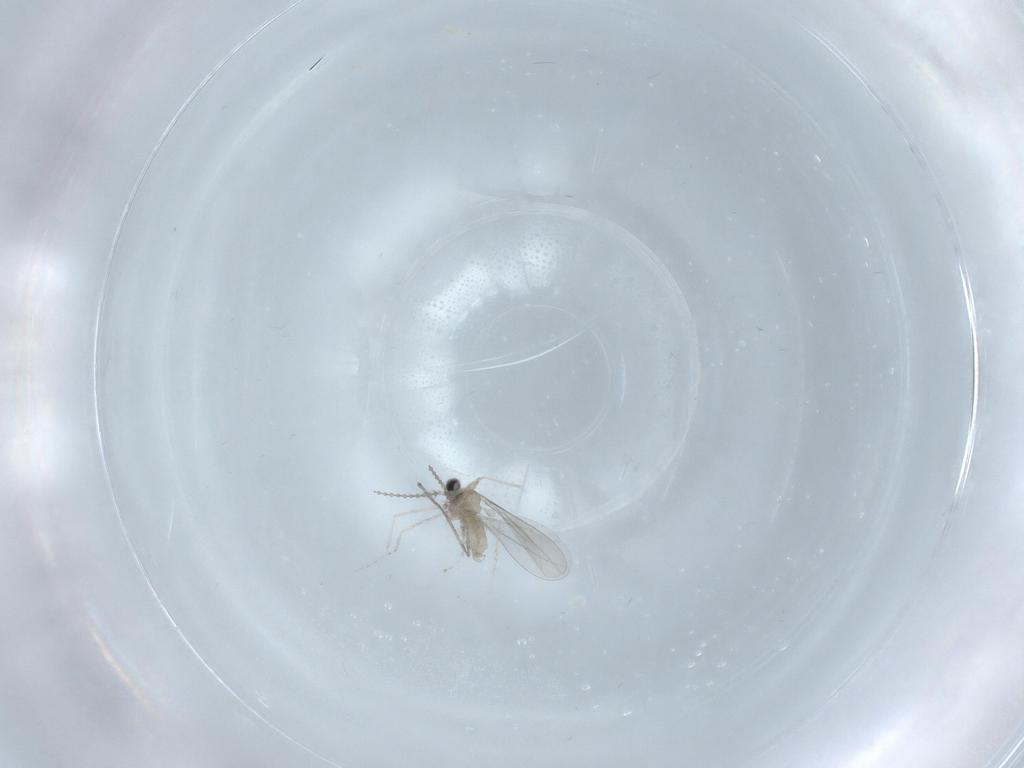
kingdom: Animalia
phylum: Arthropoda
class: Insecta
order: Diptera
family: Cecidomyiidae
